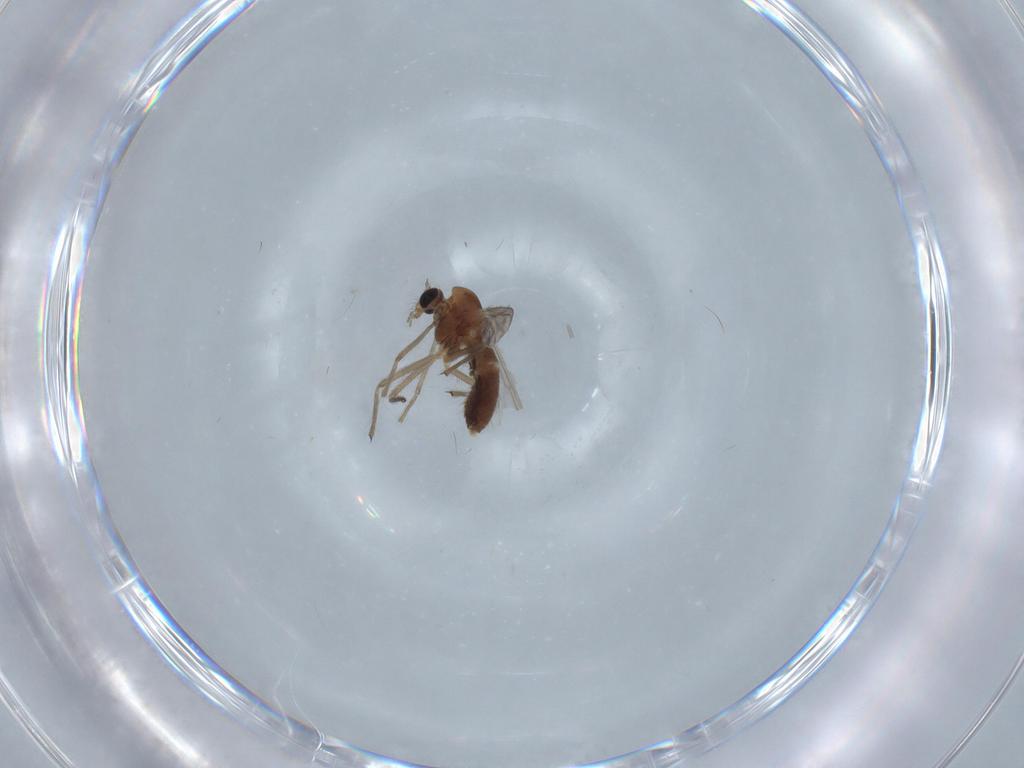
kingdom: Animalia
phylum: Arthropoda
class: Insecta
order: Diptera
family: Chironomidae
